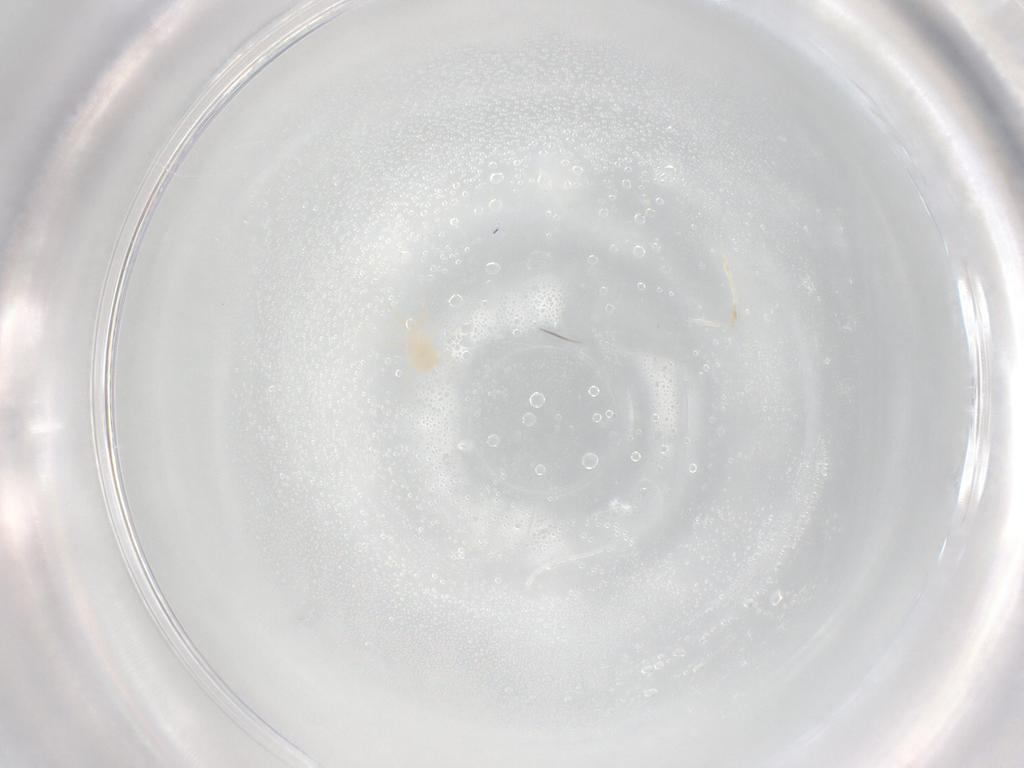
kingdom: Animalia
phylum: Arthropoda
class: Arachnida
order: Mesostigmata
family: Phytoseiidae
